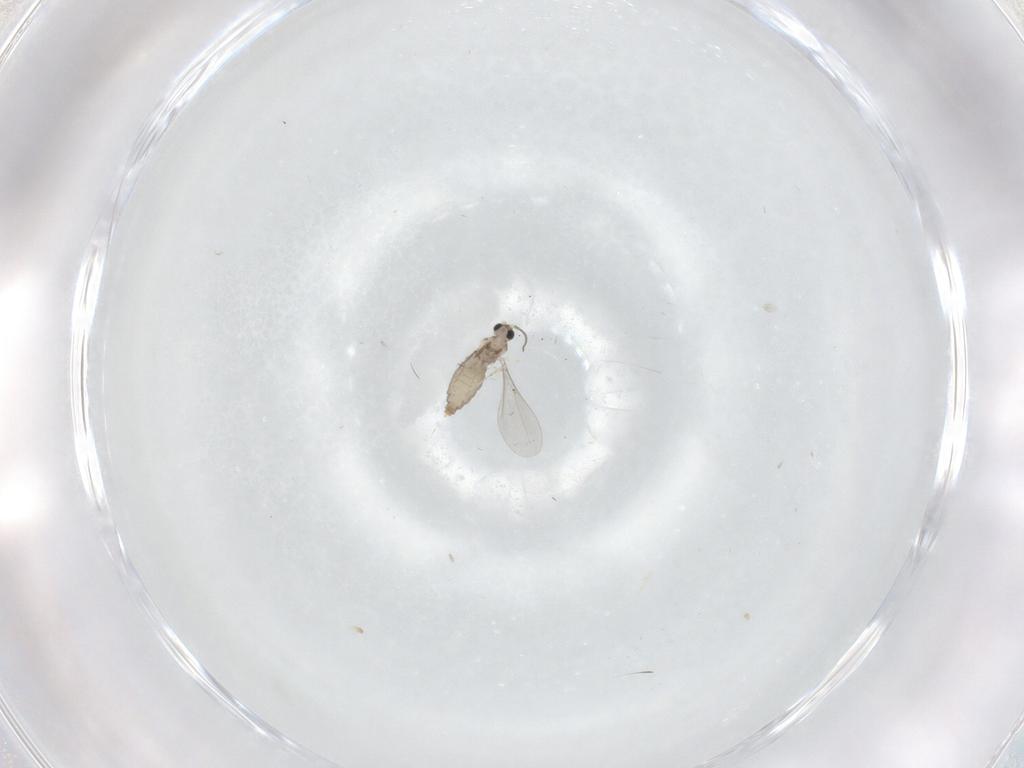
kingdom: Animalia
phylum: Arthropoda
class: Insecta
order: Diptera
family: Cecidomyiidae
